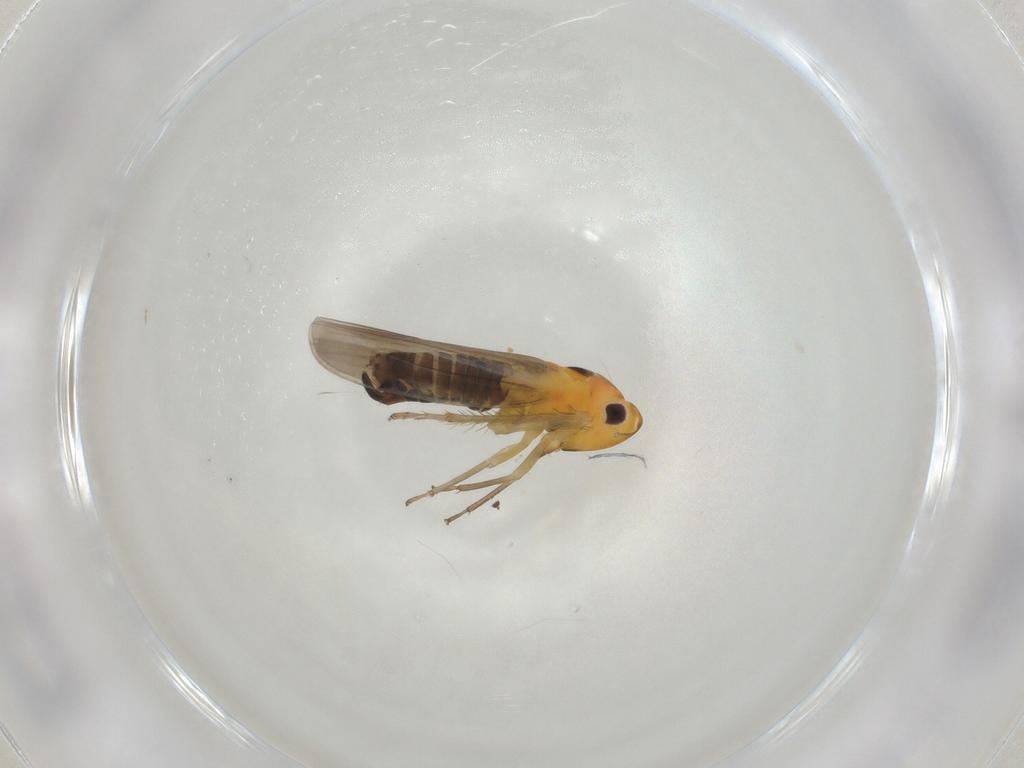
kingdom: Animalia
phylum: Arthropoda
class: Insecta
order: Hemiptera
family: Cicadellidae
